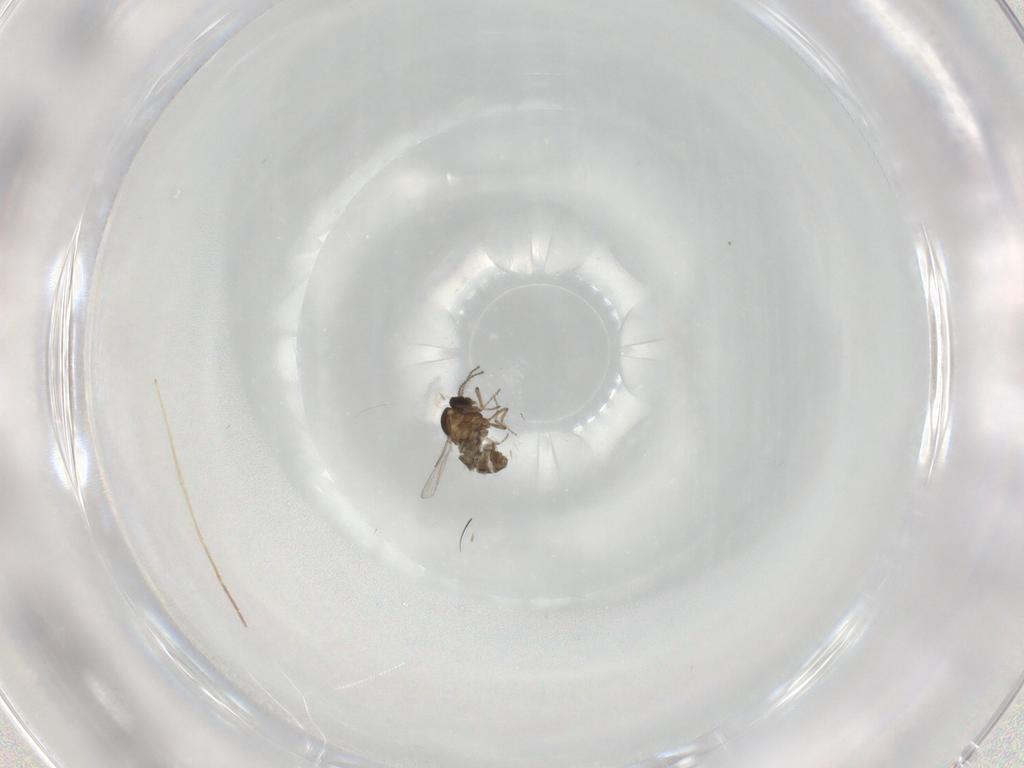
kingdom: Animalia
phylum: Arthropoda
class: Insecta
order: Diptera
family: Ceratopogonidae
